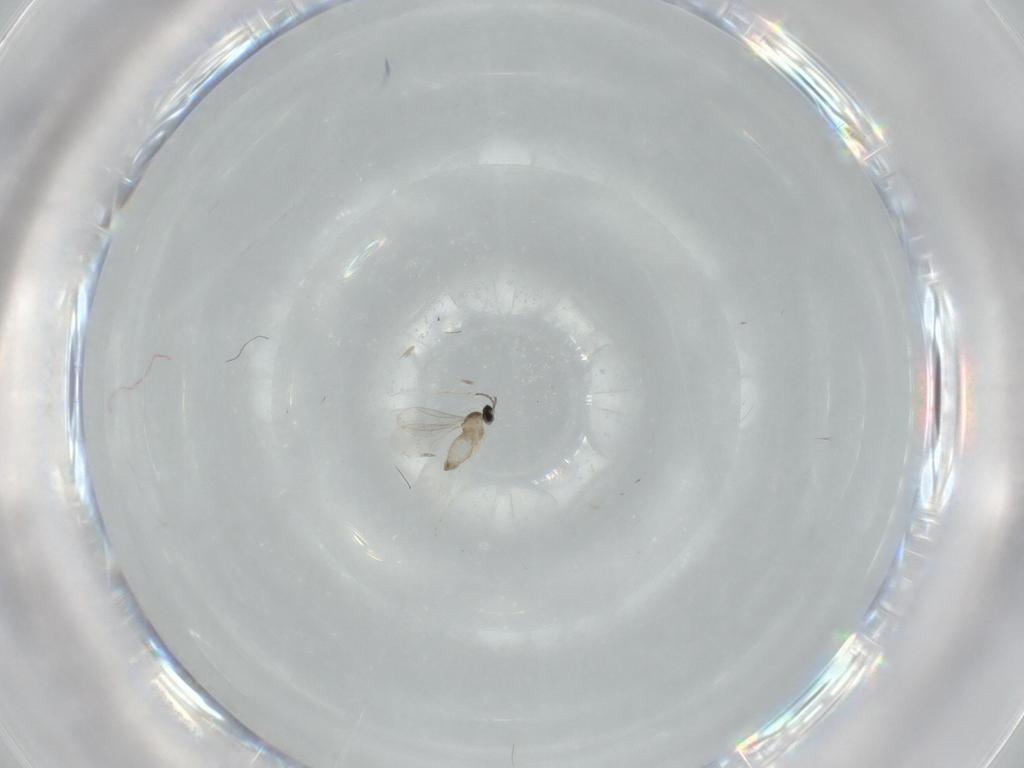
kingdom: Animalia
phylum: Arthropoda
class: Insecta
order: Diptera
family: Cecidomyiidae
